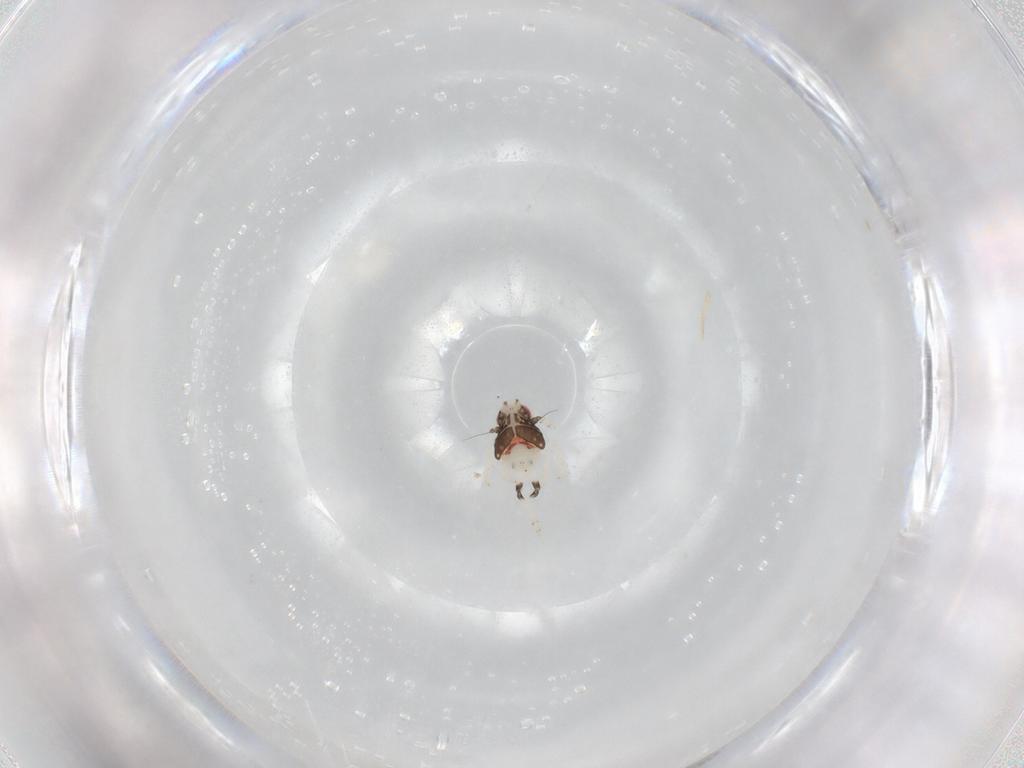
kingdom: Animalia
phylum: Arthropoda
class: Insecta
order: Hemiptera
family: Nogodinidae
